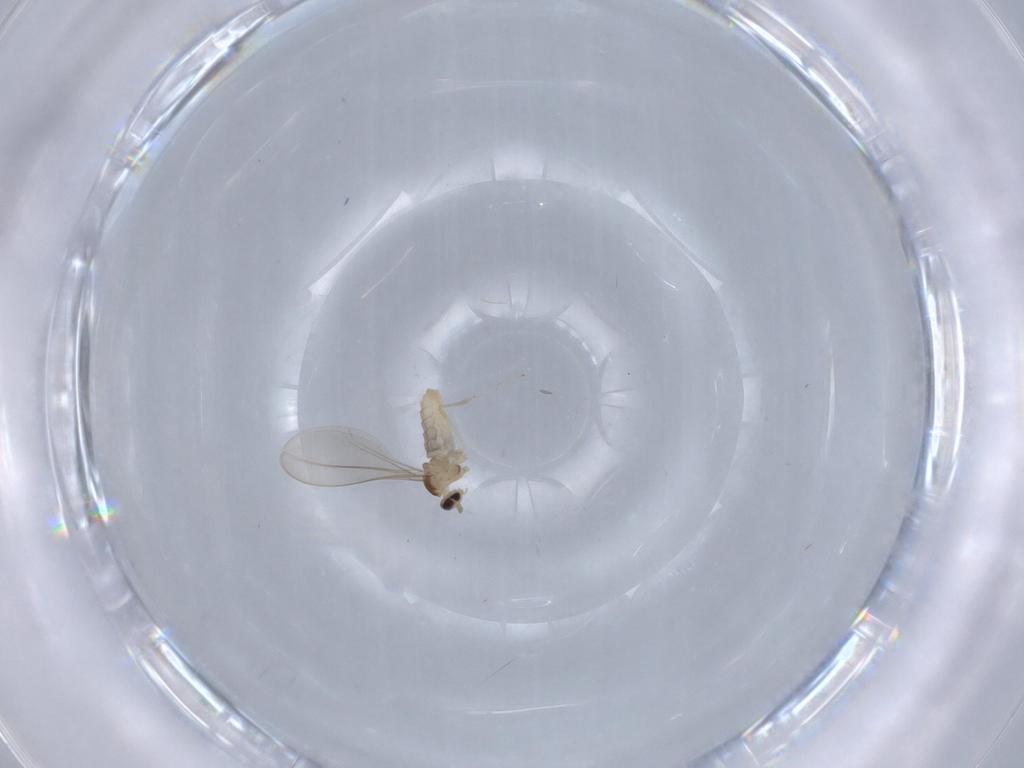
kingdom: Animalia
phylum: Arthropoda
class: Insecta
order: Diptera
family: Cecidomyiidae
